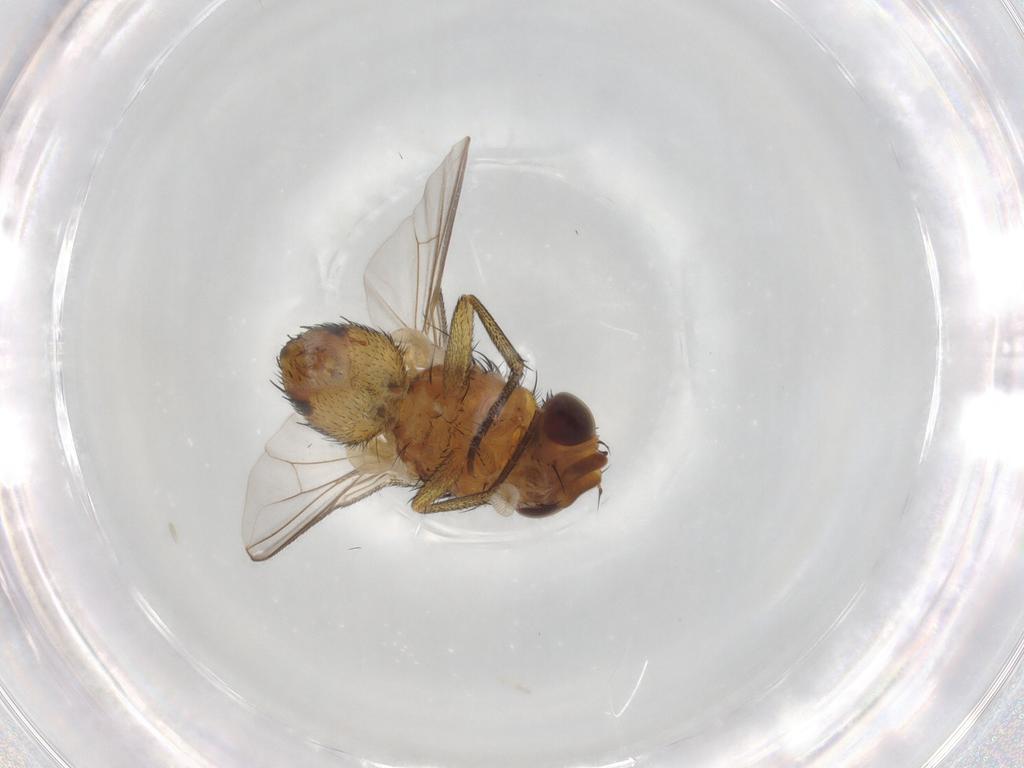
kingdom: Animalia
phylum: Arthropoda
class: Insecta
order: Diptera
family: Tachinidae
